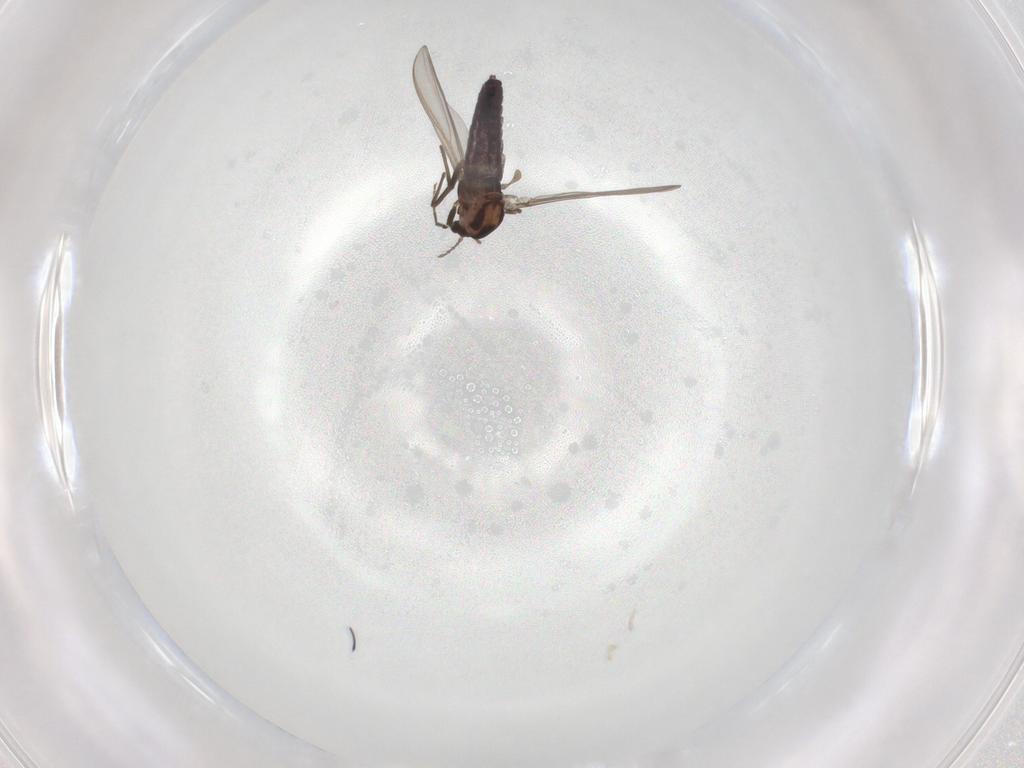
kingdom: Animalia
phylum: Arthropoda
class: Insecta
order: Diptera
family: Chironomidae
